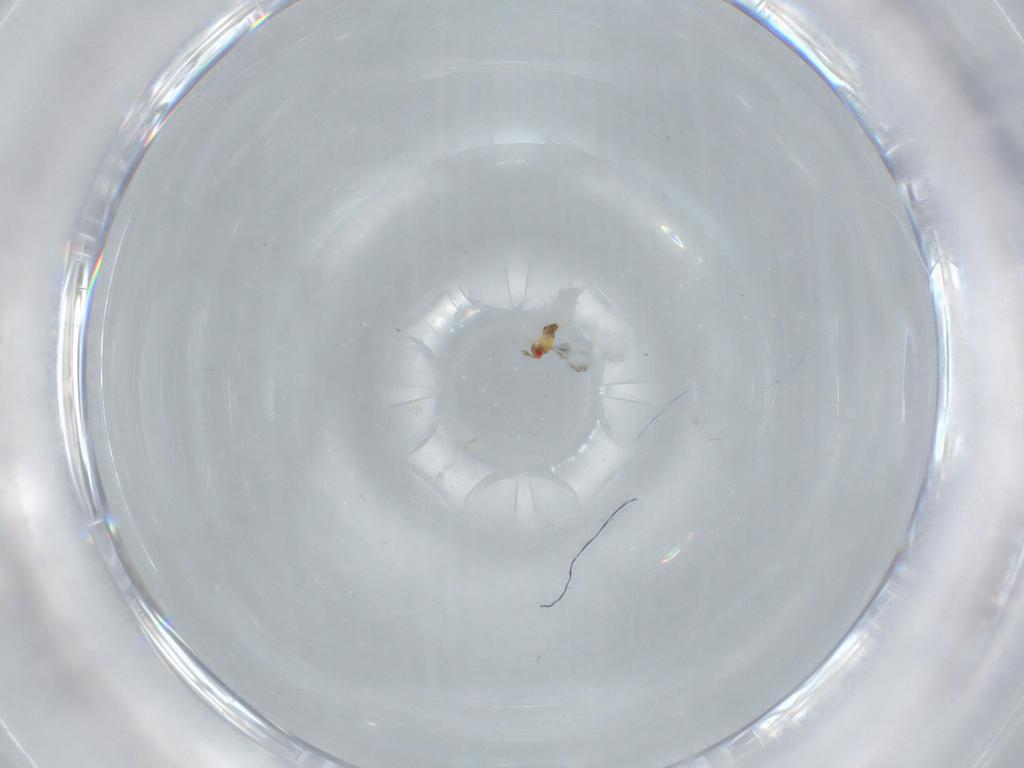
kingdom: Animalia
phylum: Arthropoda
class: Insecta
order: Hymenoptera
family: Trichogrammatidae
